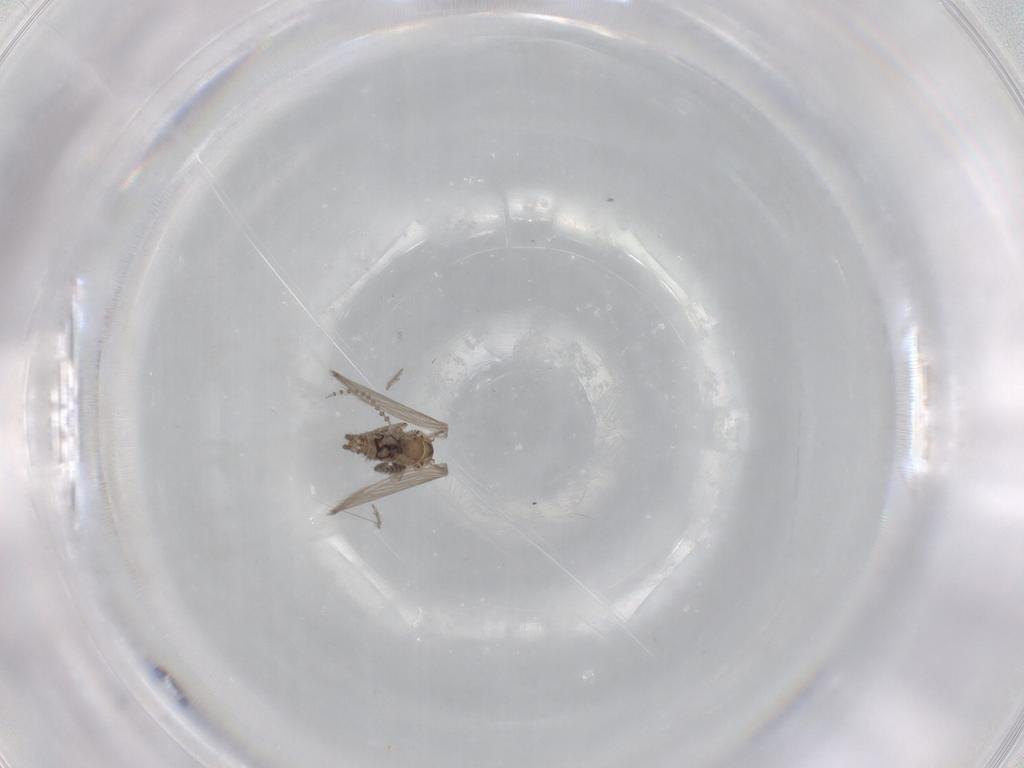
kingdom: Animalia
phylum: Arthropoda
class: Insecta
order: Diptera
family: Psychodidae
